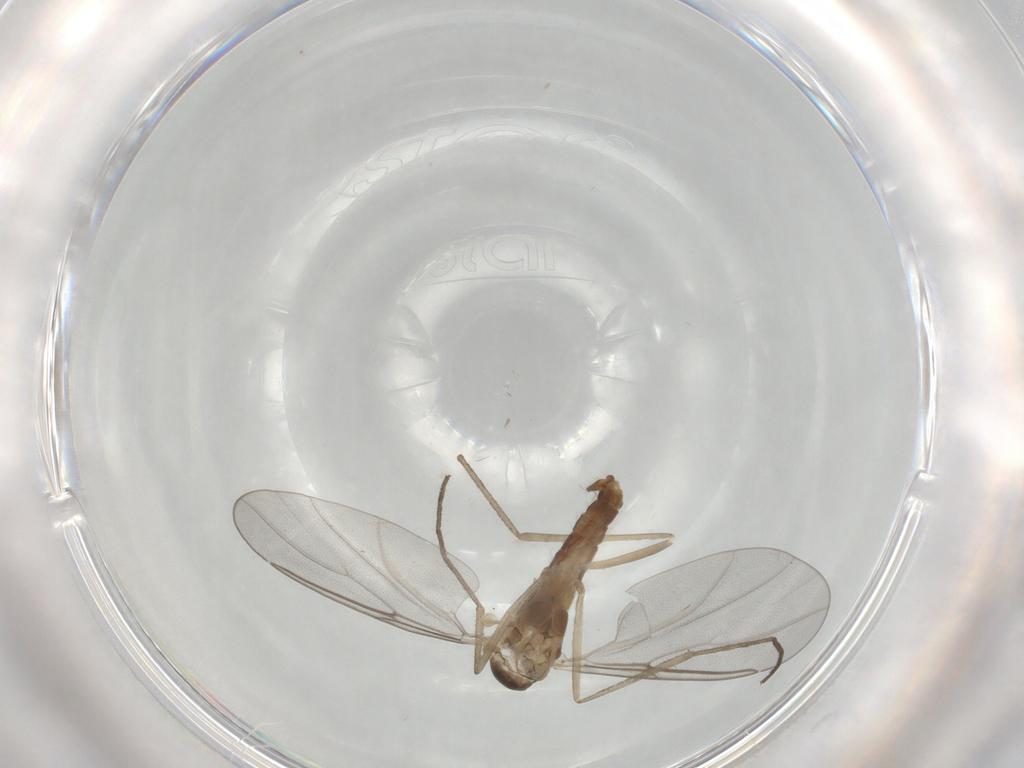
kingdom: Animalia
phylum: Arthropoda
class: Insecta
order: Diptera
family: Cecidomyiidae
